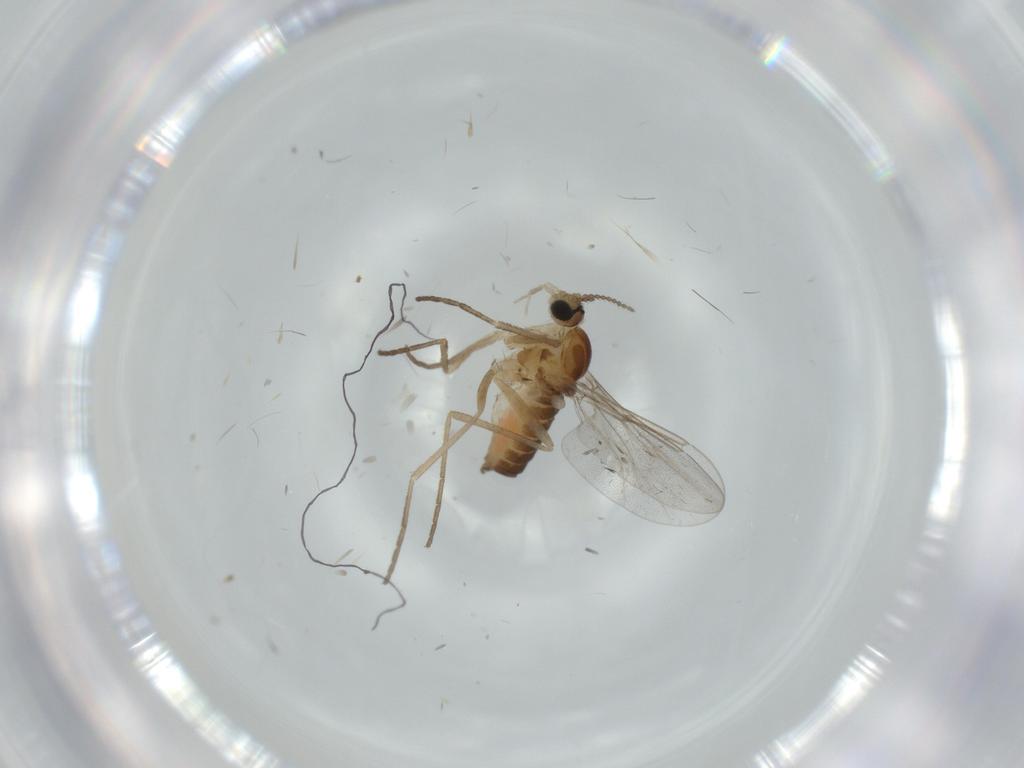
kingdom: Animalia
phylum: Arthropoda
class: Insecta
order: Diptera
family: Cecidomyiidae
